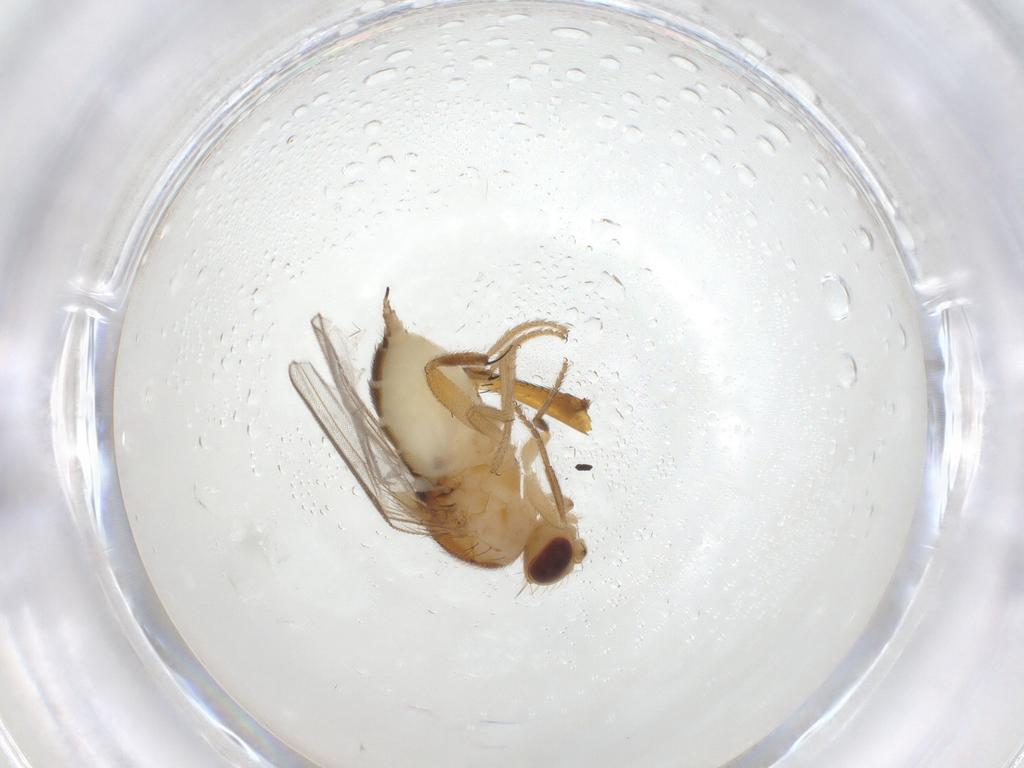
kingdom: Animalia
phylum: Arthropoda
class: Insecta
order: Diptera
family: Chloropidae
